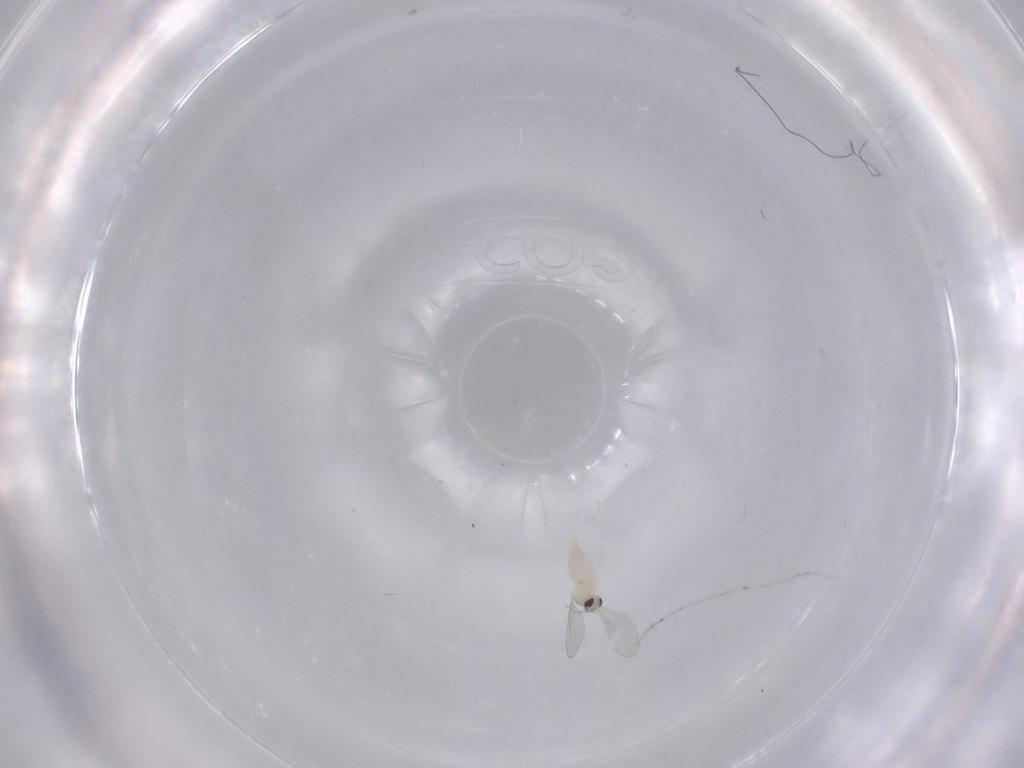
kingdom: Animalia
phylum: Arthropoda
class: Insecta
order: Diptera
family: Cecidomyiidae
